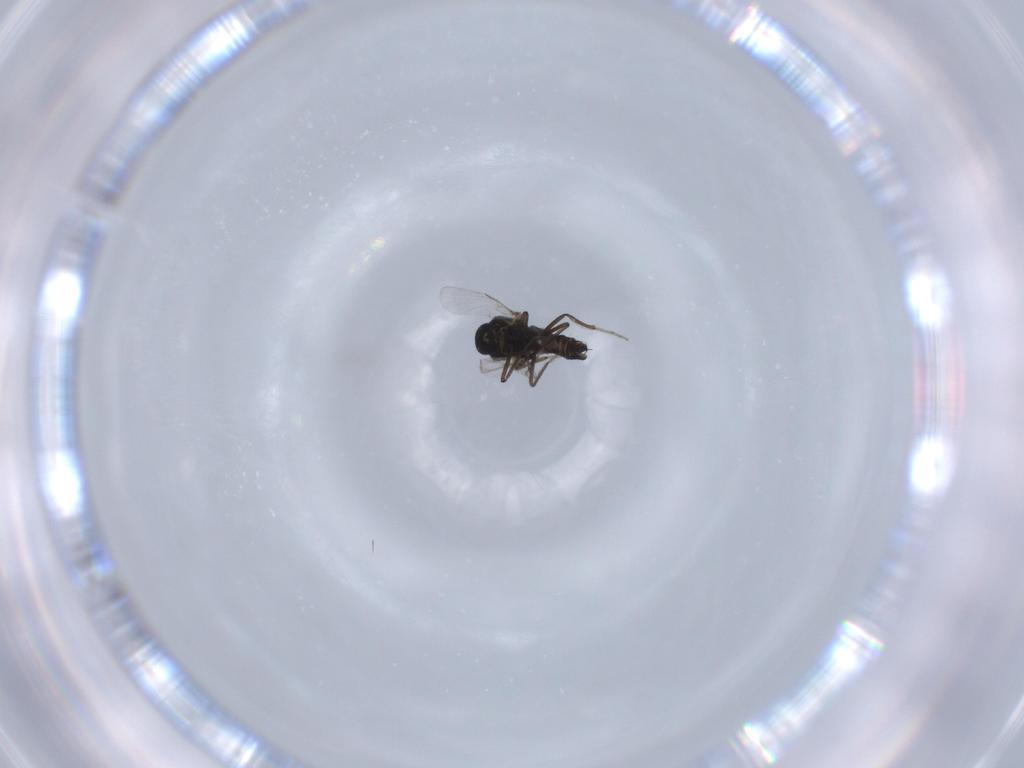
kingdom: Animalia
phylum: Arthropoda
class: Insecta
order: Diptera
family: Ceratopogonidae
